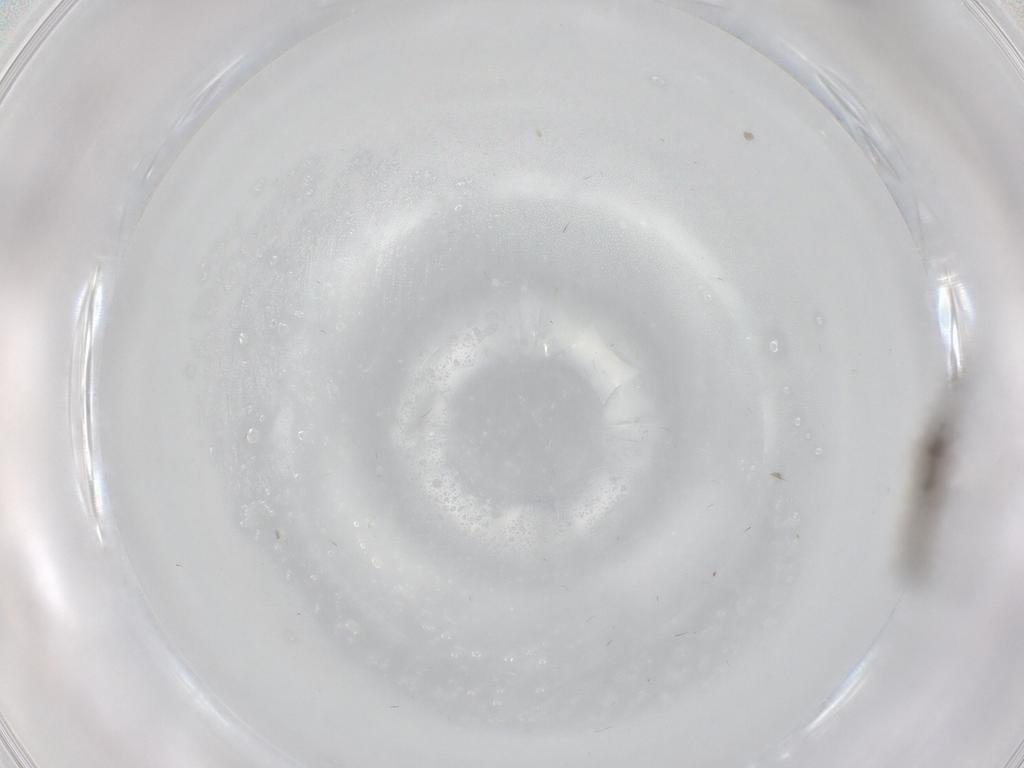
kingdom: Animalia
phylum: Arthropoda
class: Insecta
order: Diptera
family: Cecidomyiidae
